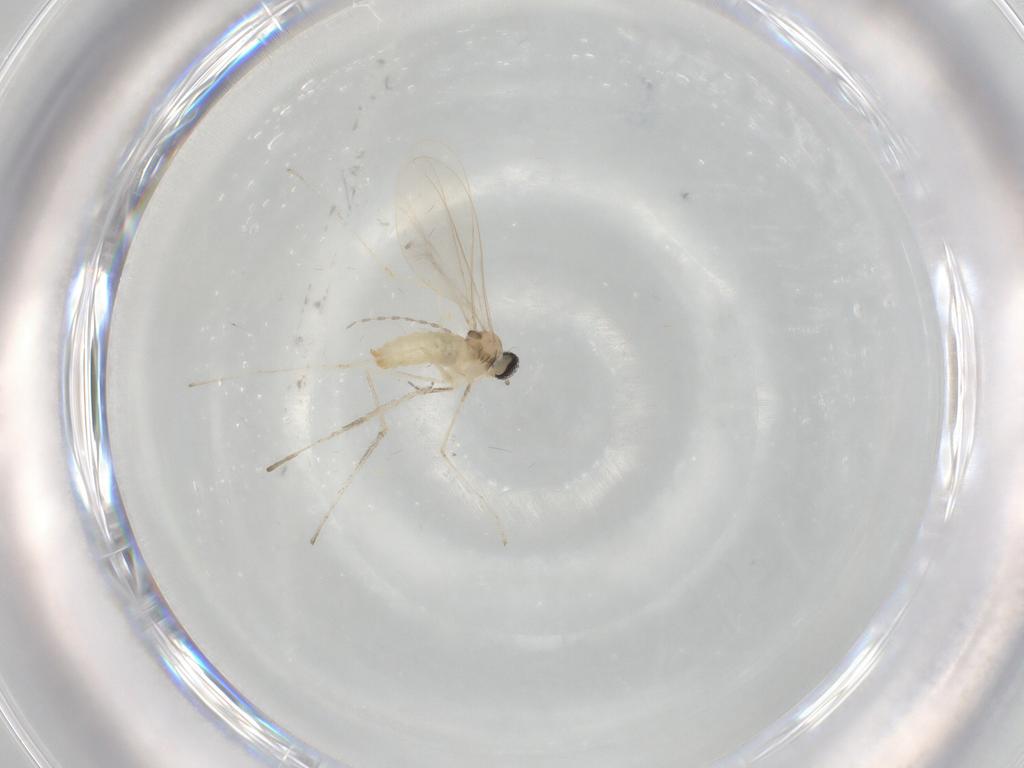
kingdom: Animalia
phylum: Arthropoda
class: Insecta
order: Diptera
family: Cecidomyiidae
